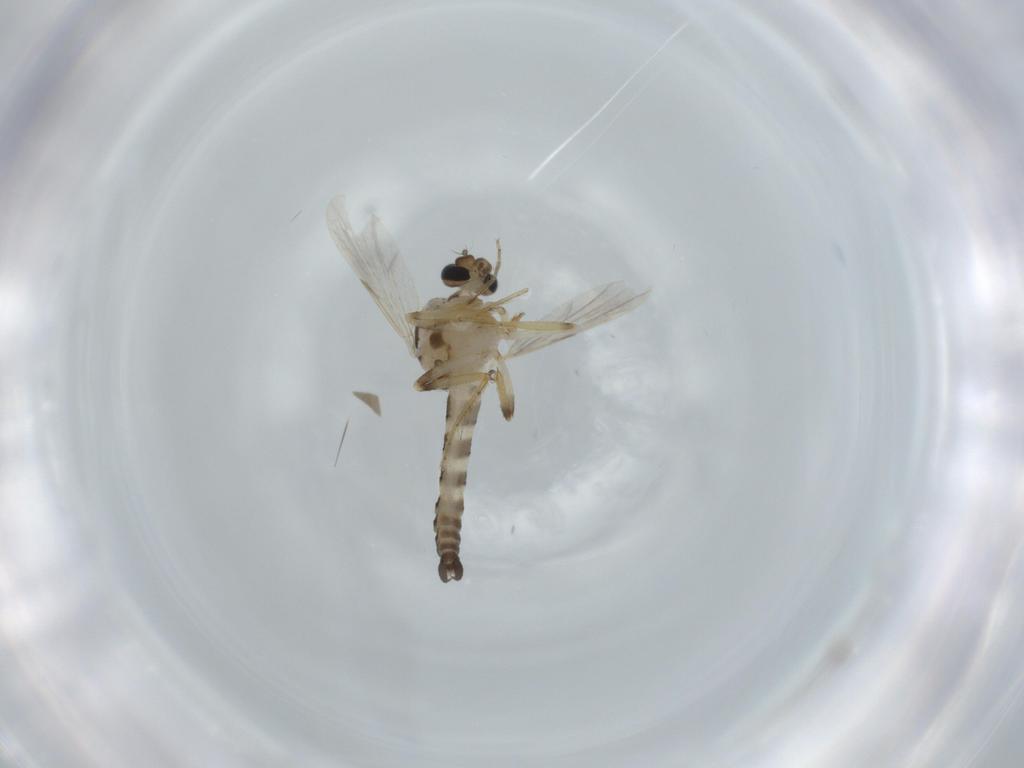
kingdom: Animalia
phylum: Arthropoda
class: Insecta
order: Diptera
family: Ceratopogonidae
